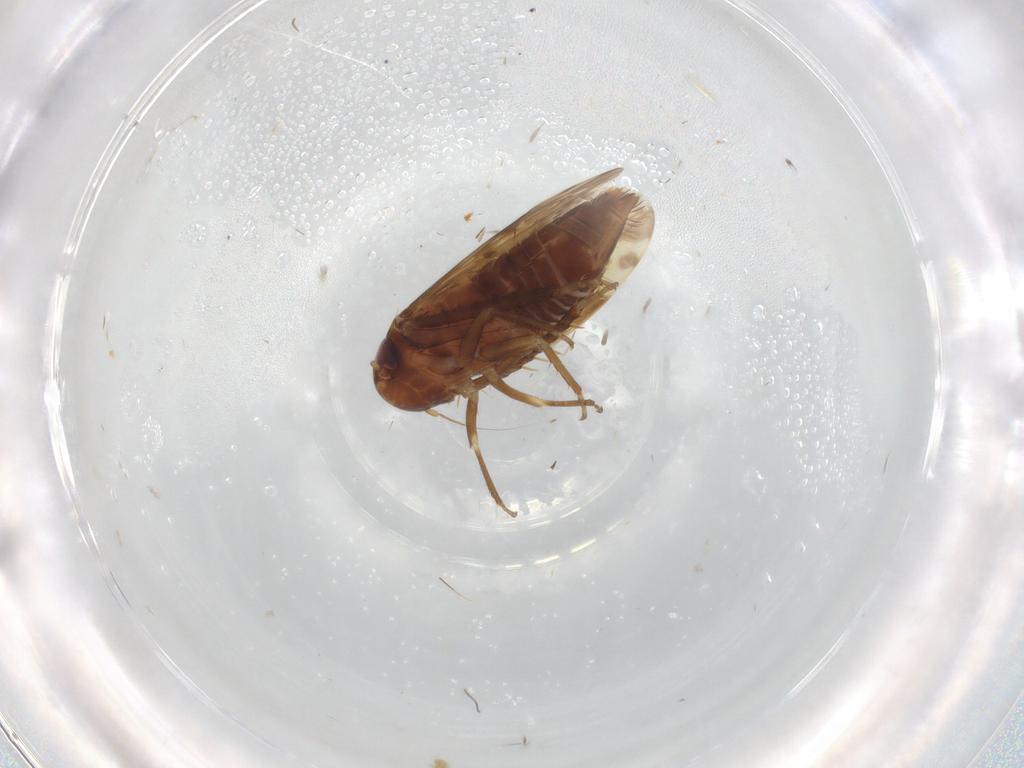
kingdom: Animalia
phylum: Arthropoda
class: Insecta
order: Hemiptera
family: Cicadellidae
